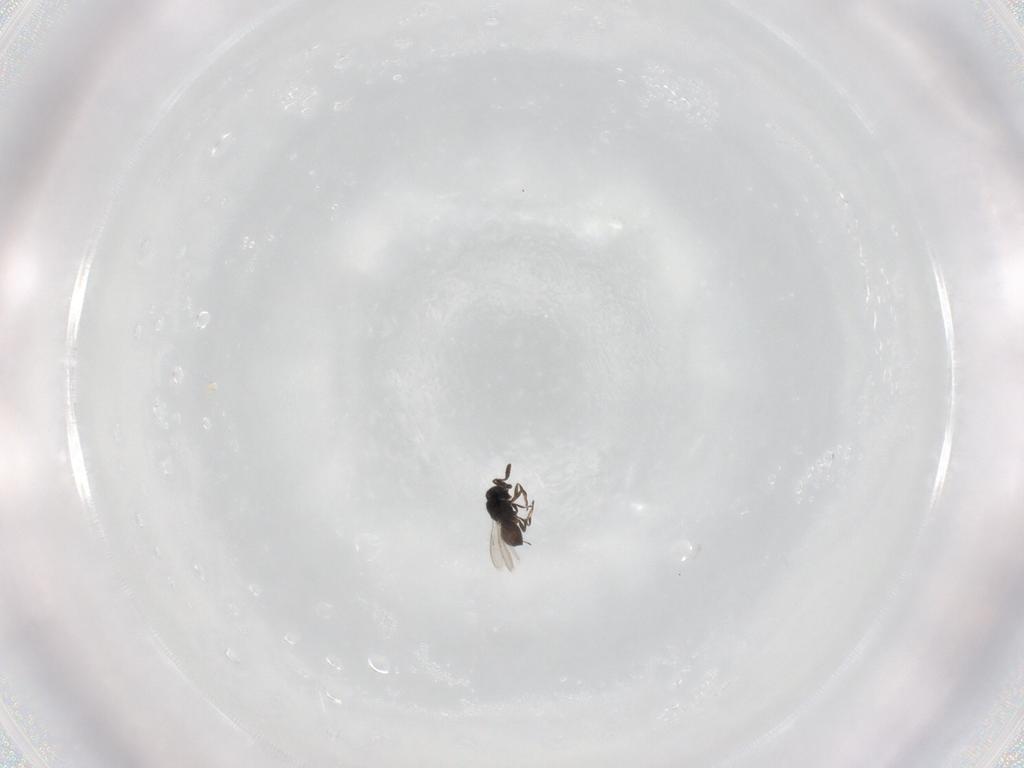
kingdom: Animalia
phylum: Arthropoda
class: Insecta
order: Hymenoptera
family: Scelionidae
